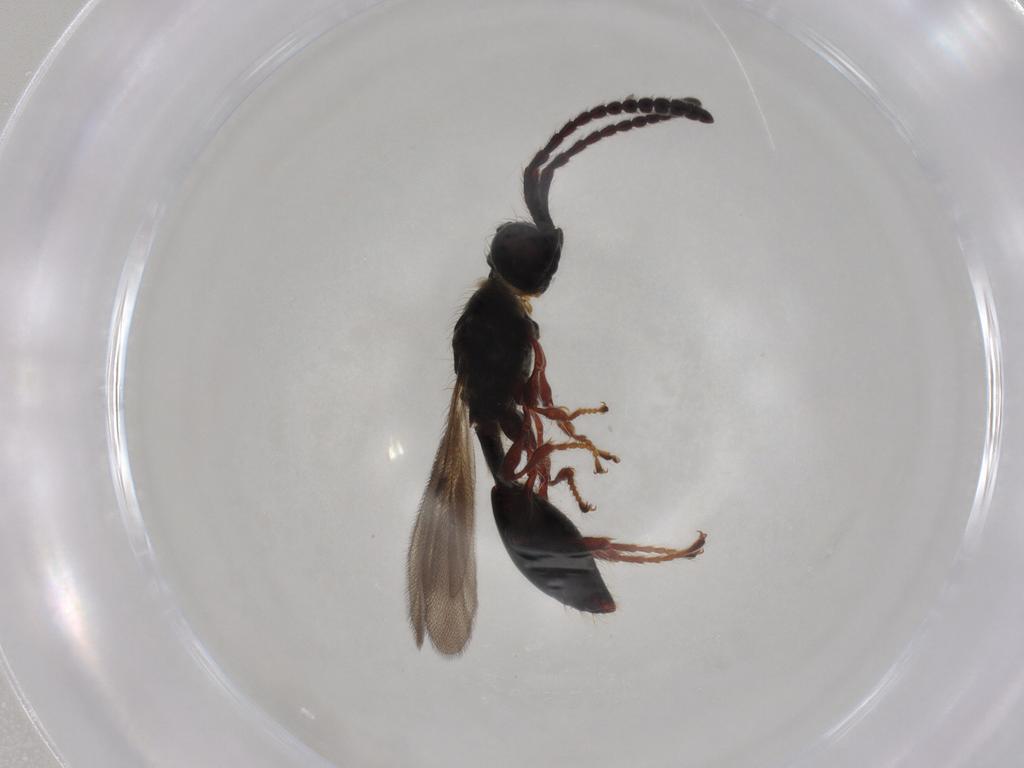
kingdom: Animalia
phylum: Arthropoda
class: Insecta
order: Hymenoptera
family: Diapriidae
